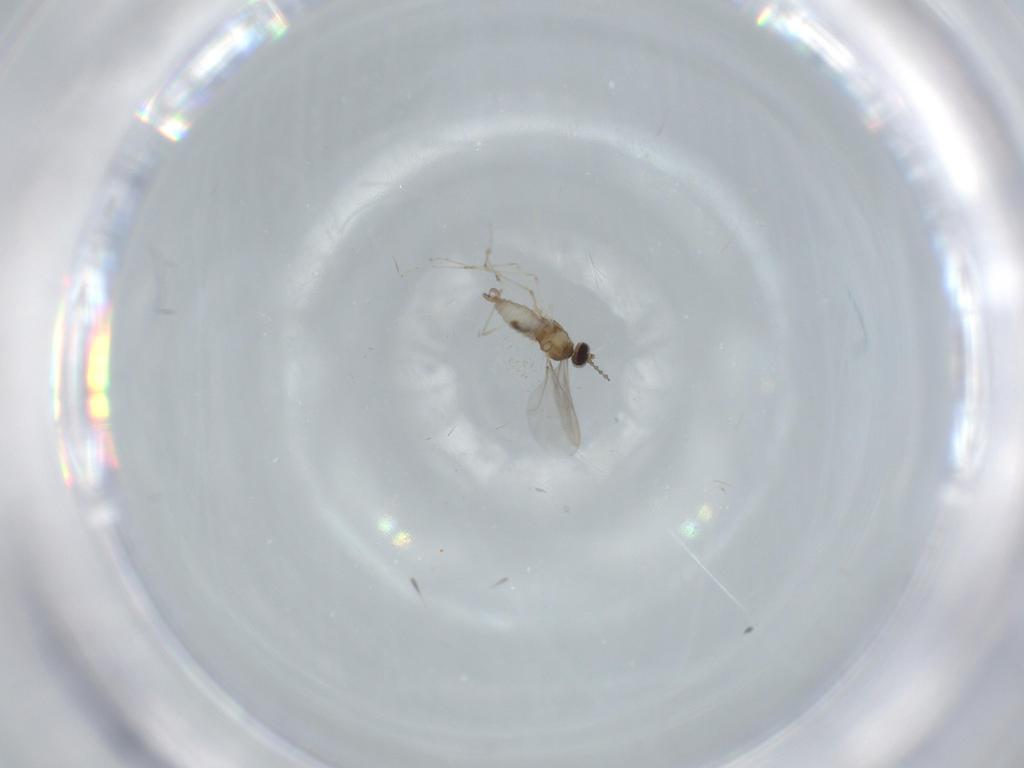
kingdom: Animalia
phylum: Arthropoda
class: Insecta
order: Diptera
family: Cecidomyiidae
